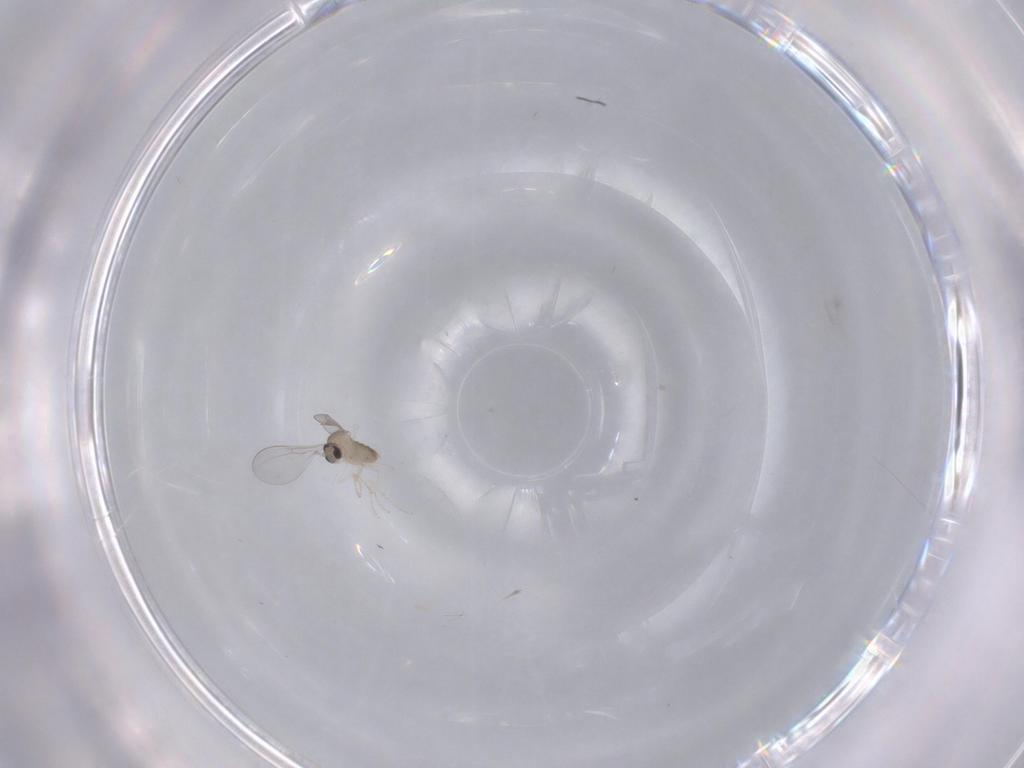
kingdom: Animalia
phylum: Arthropoda
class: Insecta
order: Diptera
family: Cecidomyiidae
